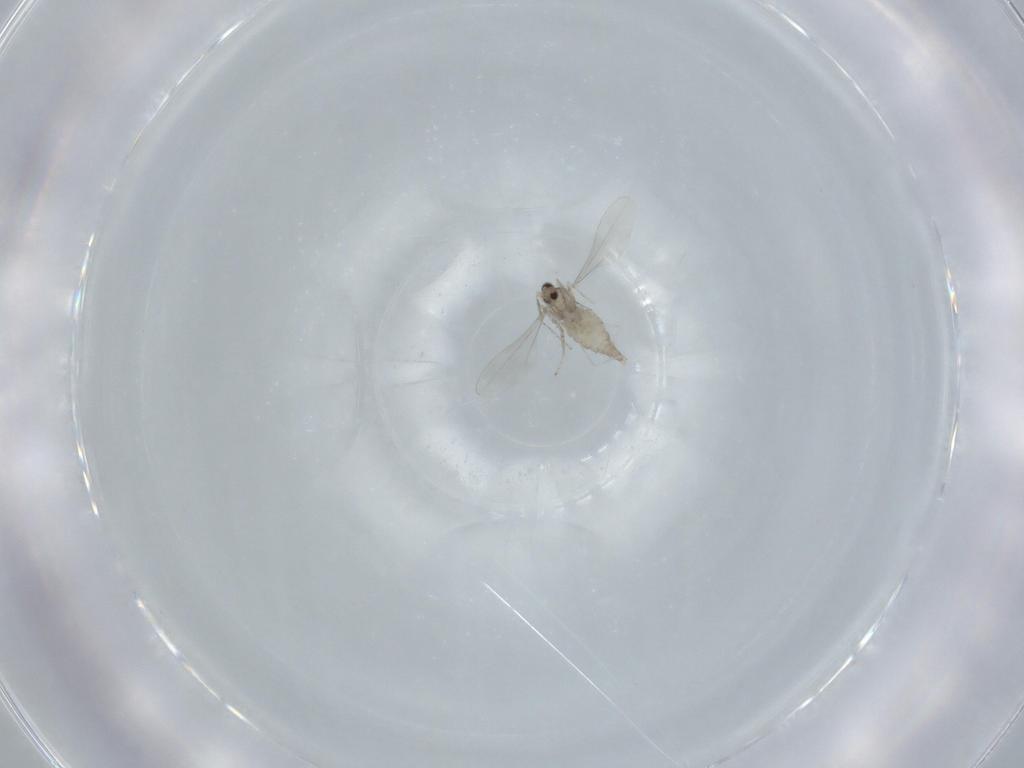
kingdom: Animalia
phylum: Arthropoda
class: Insecta
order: Diptera
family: Cecidomyiidae
